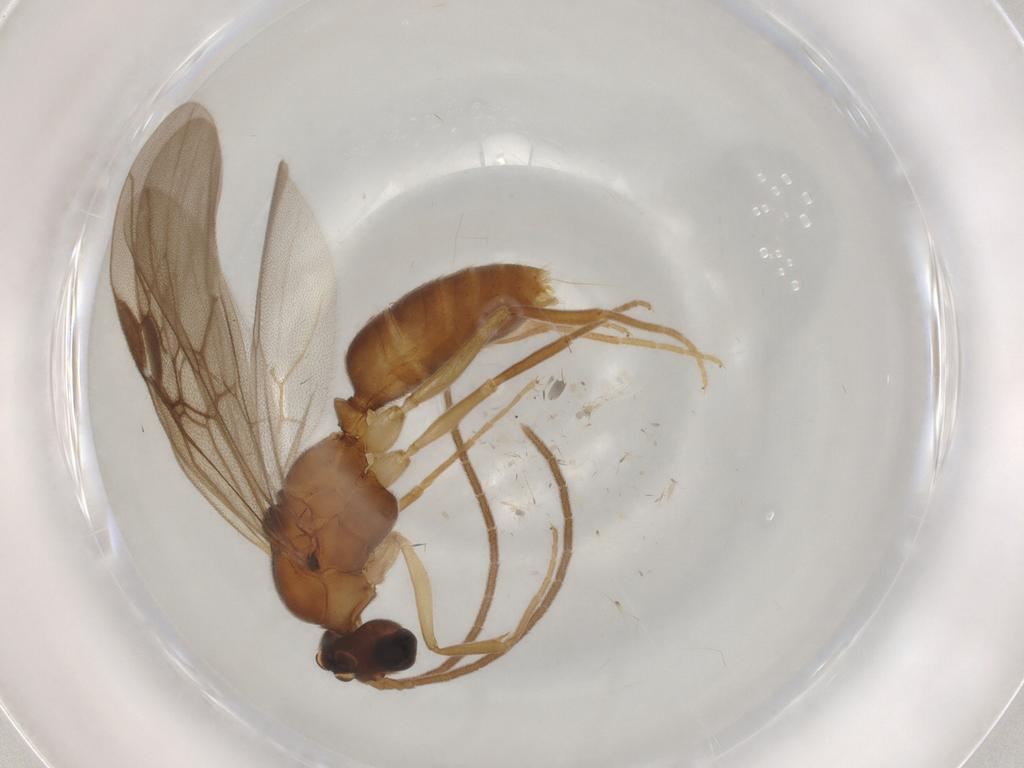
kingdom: Animalia
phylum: Arthropoda
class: Insecta
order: Hymenoptera
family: Formicidae
